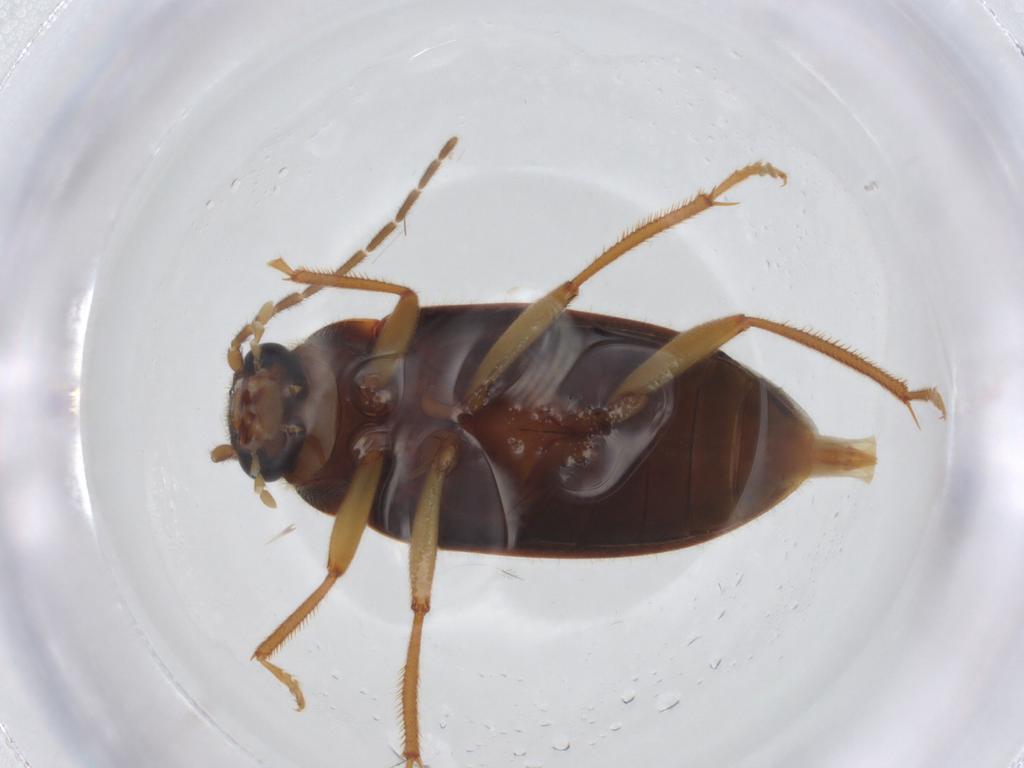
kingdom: Animalia
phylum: Arthropoda
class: Insecta
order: Coleoptera
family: Ptilodactylidae
